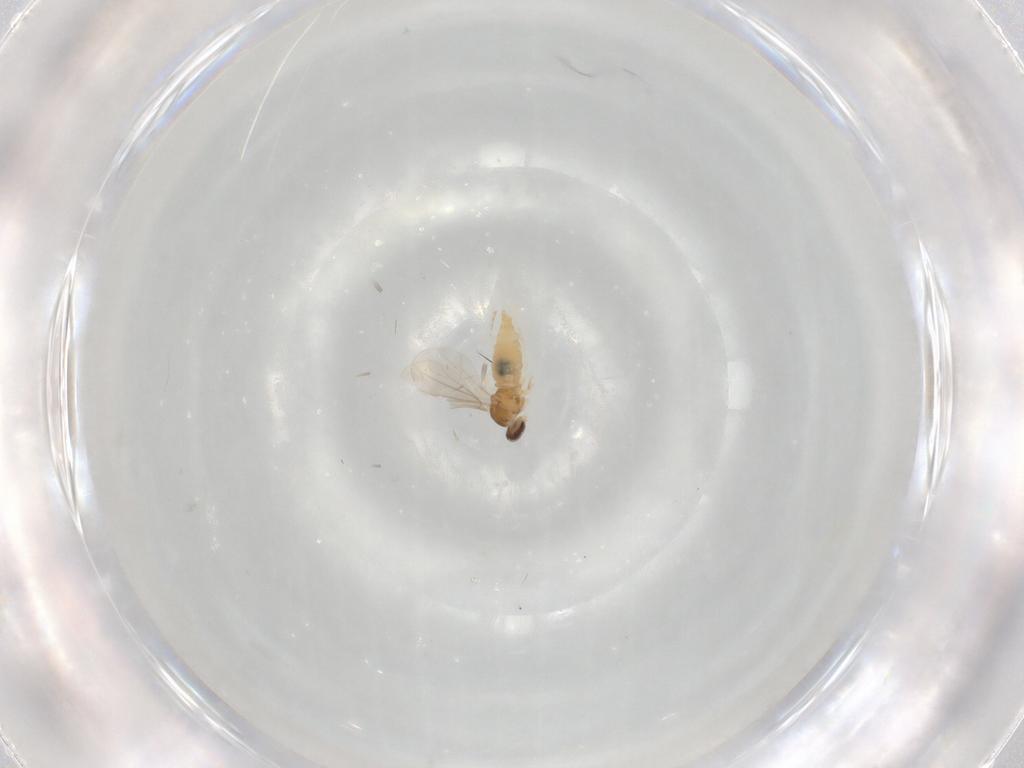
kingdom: Animalia
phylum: Arthropoda
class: Insecta
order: Diptera
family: Cecidomyiidae
